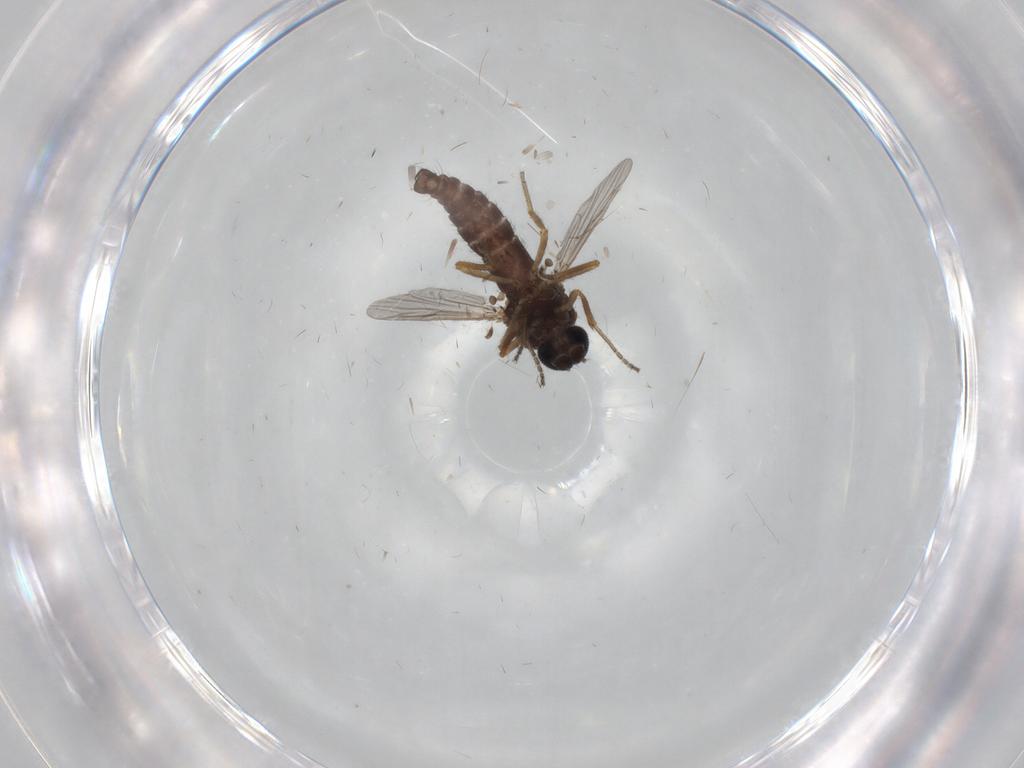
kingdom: Animalia
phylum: Arthropoda
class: Insecta
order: Diptera
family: Ceratopogonidae
